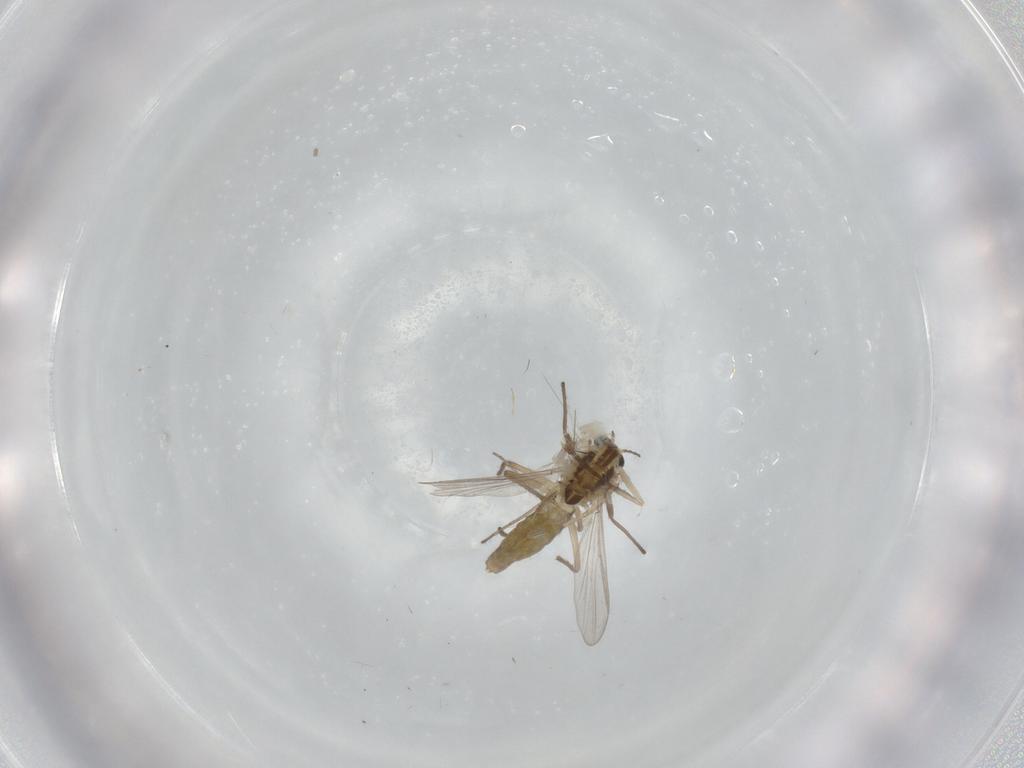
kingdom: Animalia
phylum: Arthropoda
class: Insecta
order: Diptera
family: Chironomidae
